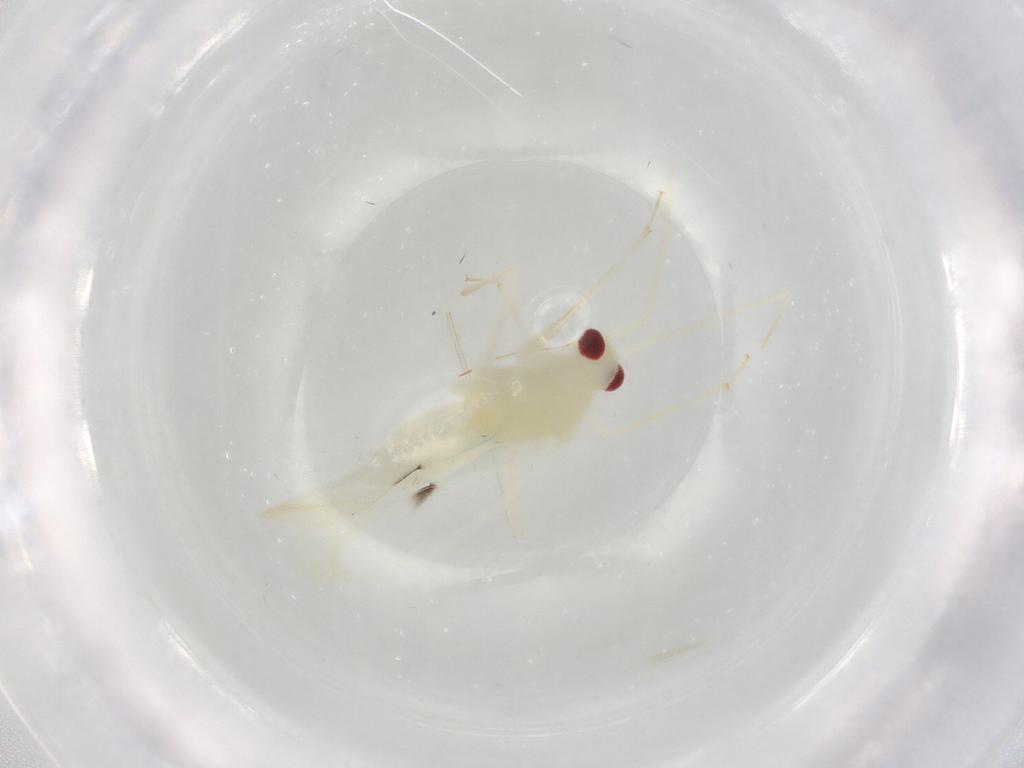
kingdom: Animalia
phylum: Arthropoda
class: Insecta
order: Hemiptera
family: Miridae
